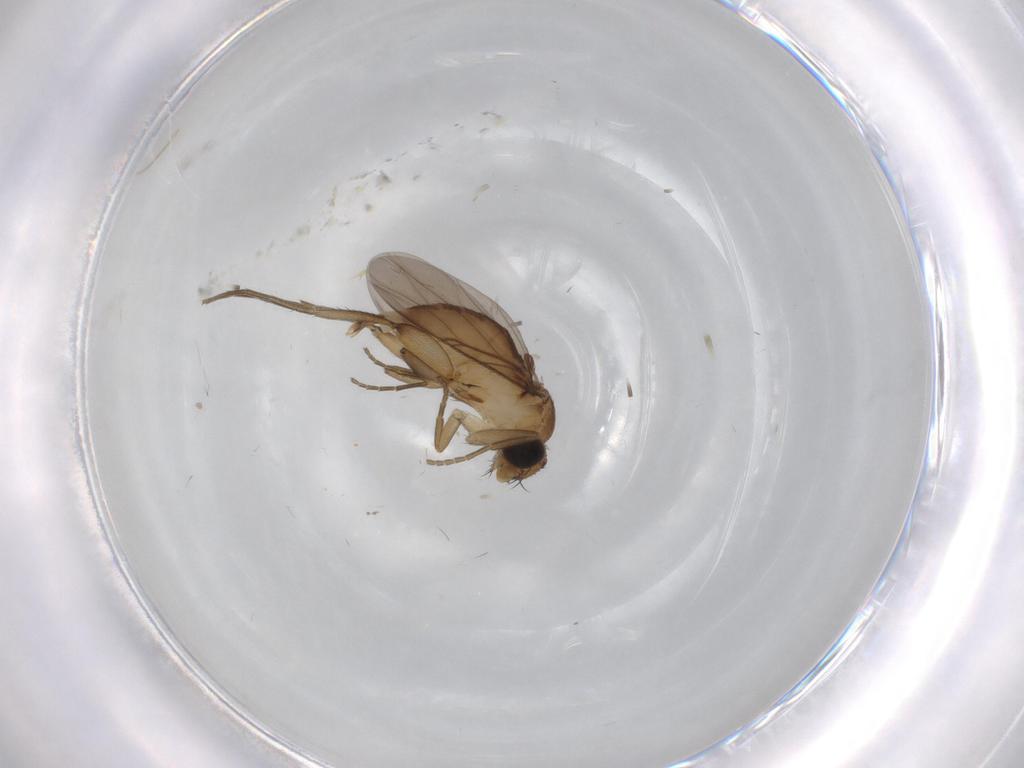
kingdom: Animalia
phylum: Arthropoda
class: Insecta
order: Diptera
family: Phoridae
